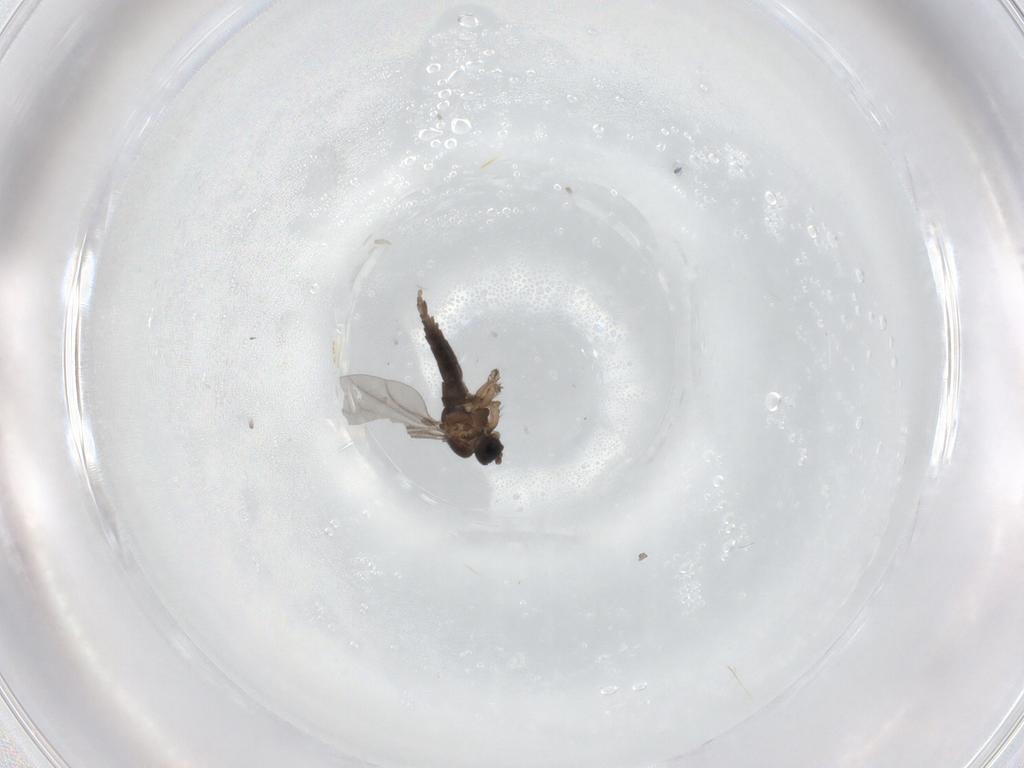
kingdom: Animalia
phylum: Arthropoda
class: Insecta
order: Diptera
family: Sciaridae
